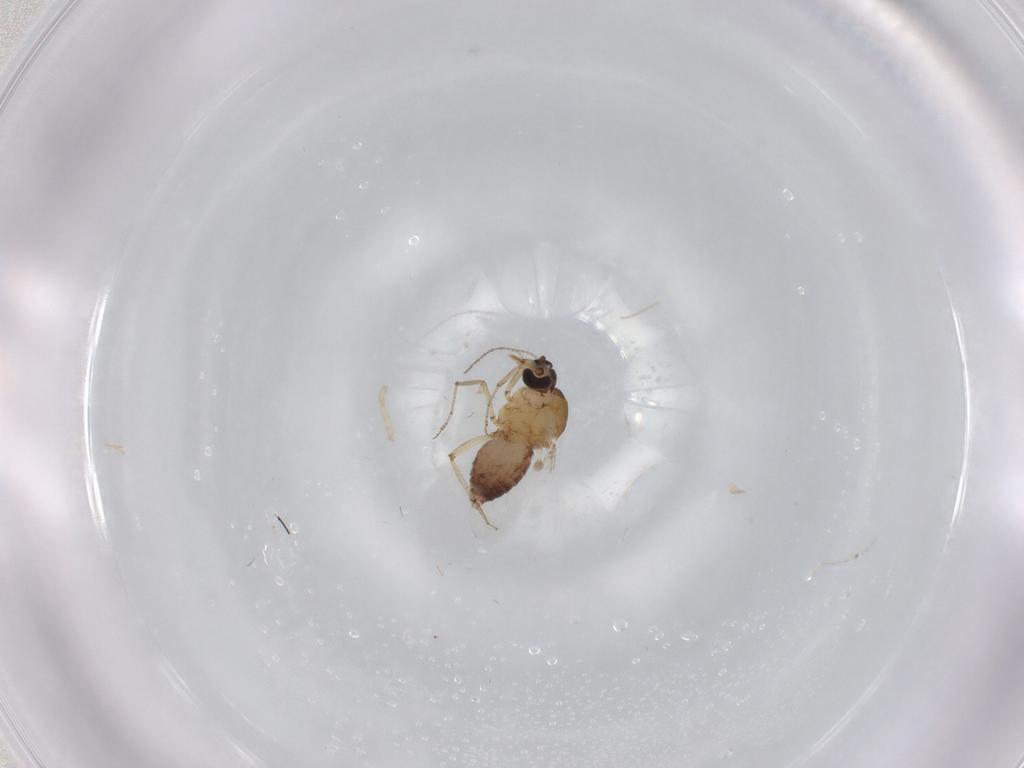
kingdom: Animalia
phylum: Arthropoda
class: Insecta
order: Diptera
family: Ceratopogonidae
